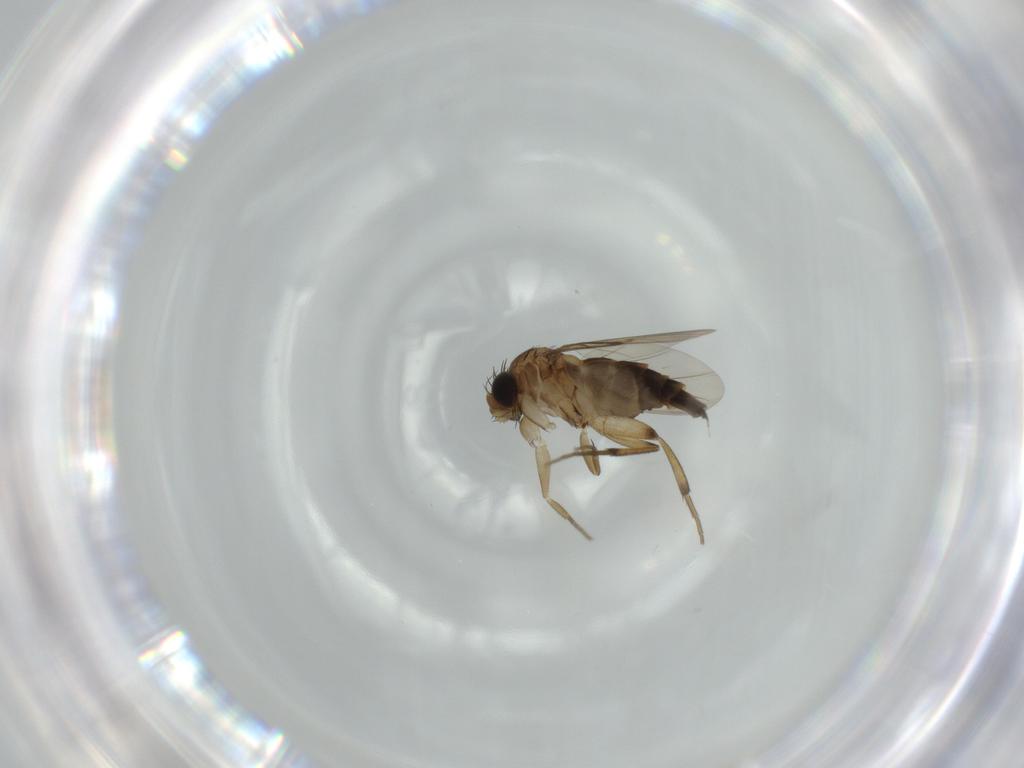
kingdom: Animalia
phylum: Arthropoda
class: Insecta
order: Diptera
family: Phoridae
